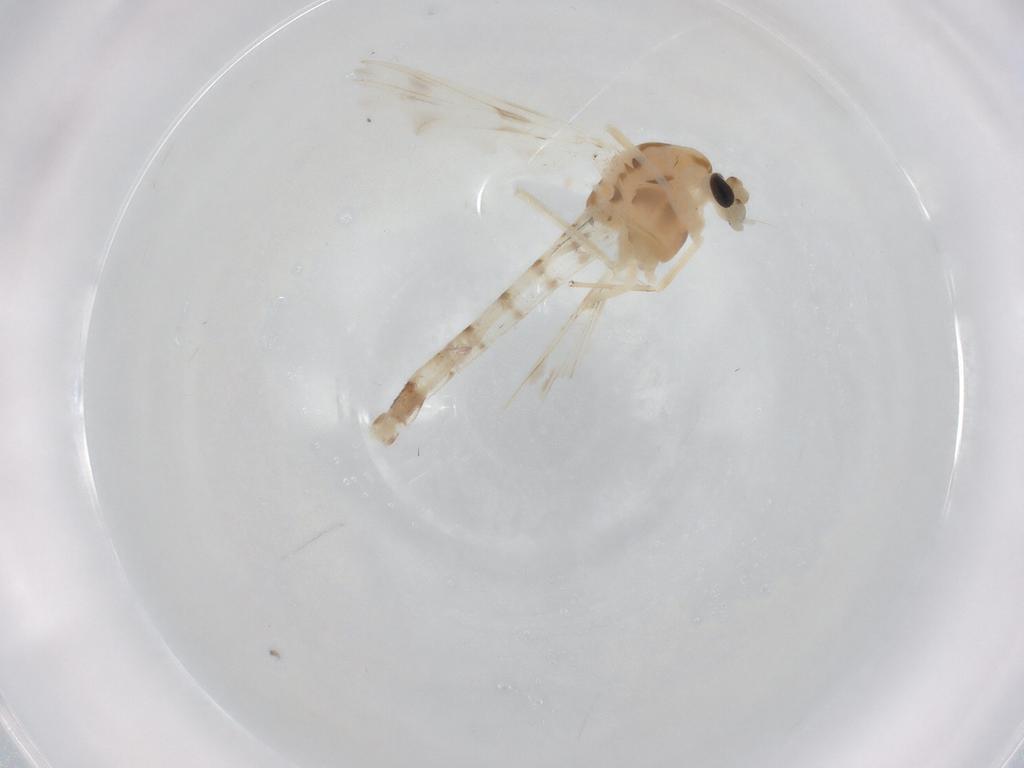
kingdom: Animalia
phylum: Arthropoda
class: Insecta
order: Diptera
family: Chironomidae
